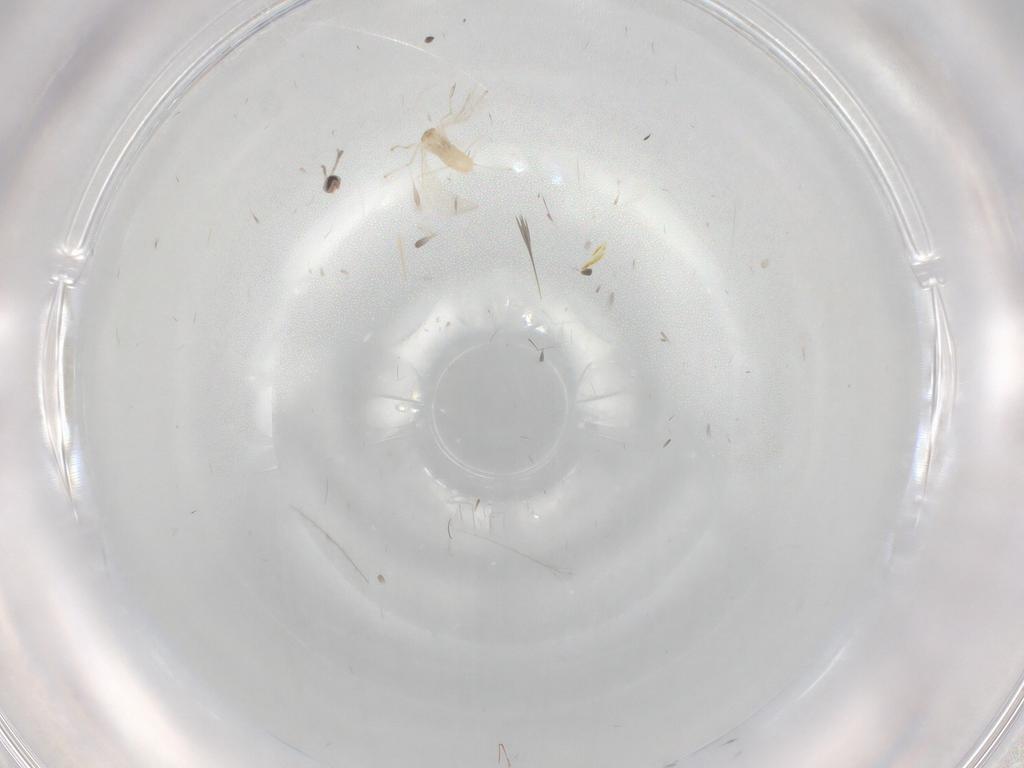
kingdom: Animalia
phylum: Arthropoda
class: Insecta
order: Diptera
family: Cecidomyiidae
